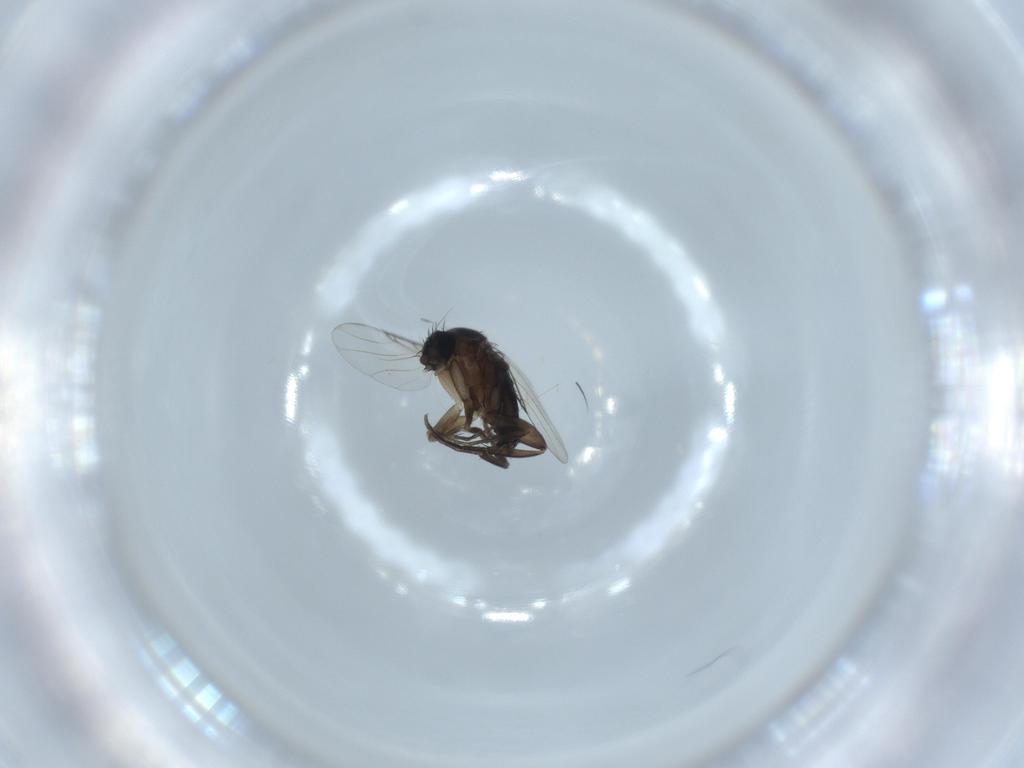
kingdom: Animalia
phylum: Arthropoda
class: Insecta
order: Diptera
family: Phoridae
